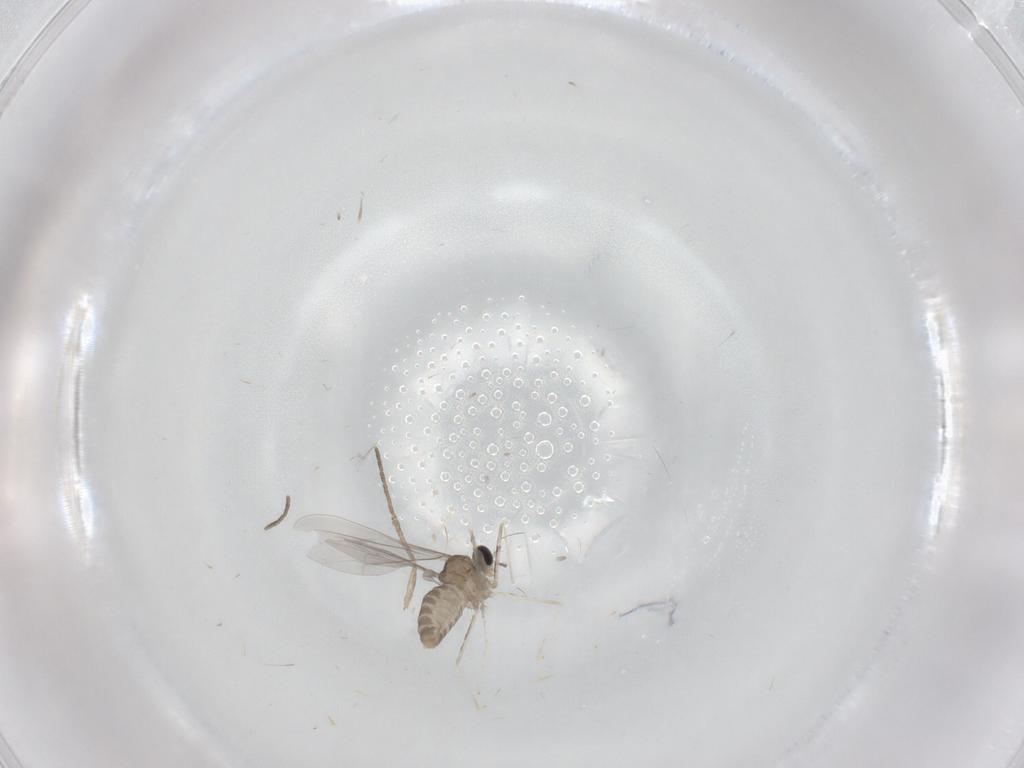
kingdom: Animalia
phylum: Arthropoda
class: Insecta
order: Diptera
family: Cecidomyiidae
